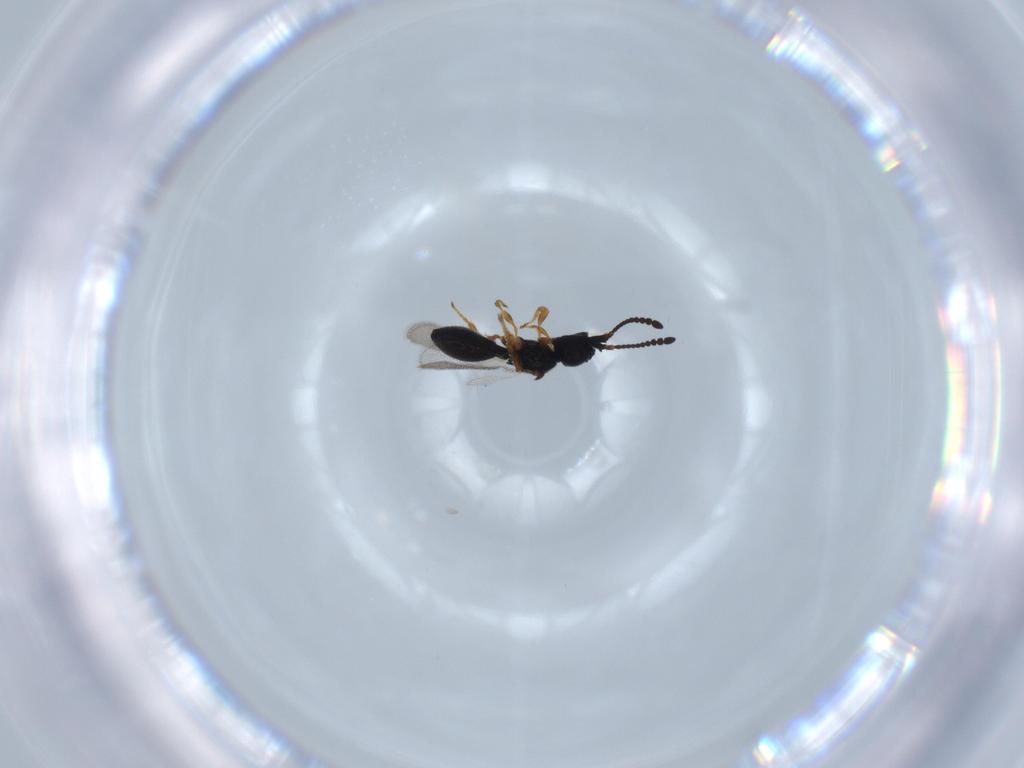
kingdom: Animalia
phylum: Arthropoda
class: Insecta
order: Hymenoptera
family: Diapriidae
